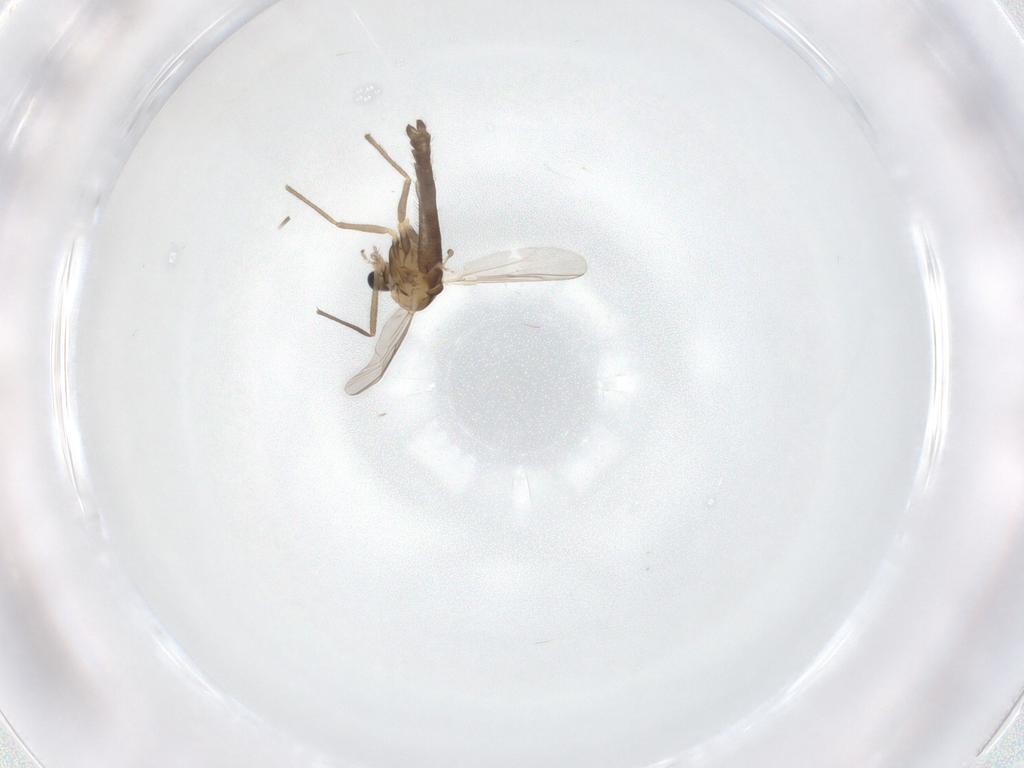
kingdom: Animalia
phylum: Arthropoda
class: Insecta
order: Diptera
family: Chironomidae
